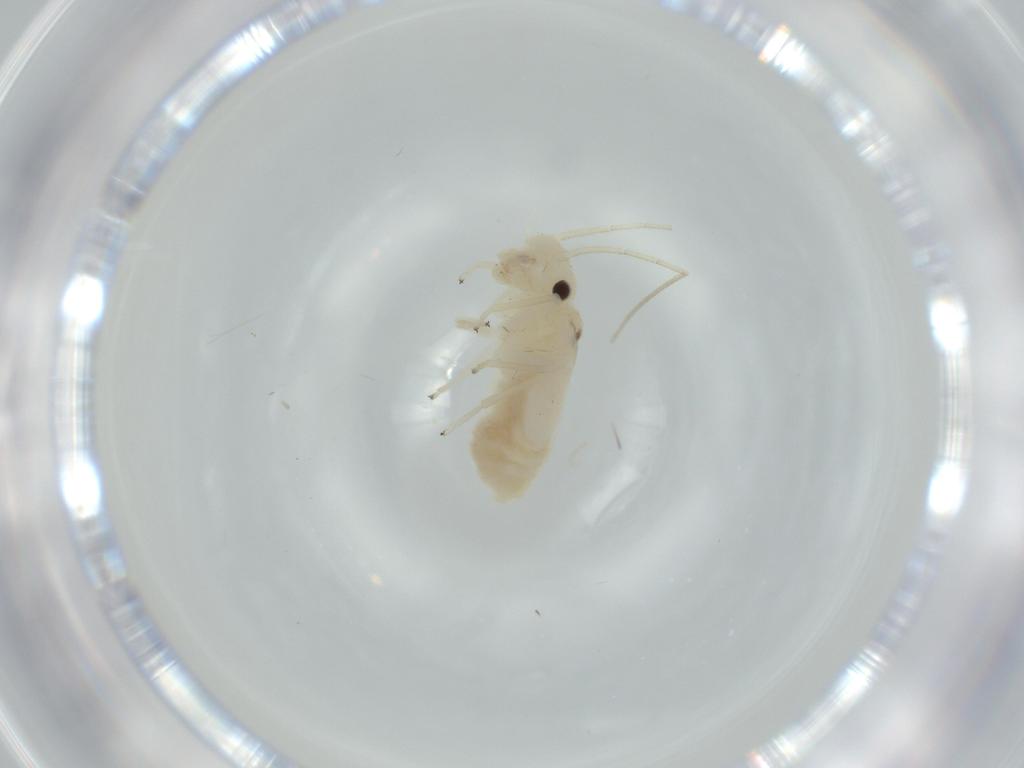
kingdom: Animalia
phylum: Arthropoda
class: Insecta
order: Psocodea
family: Caeciliusidae
